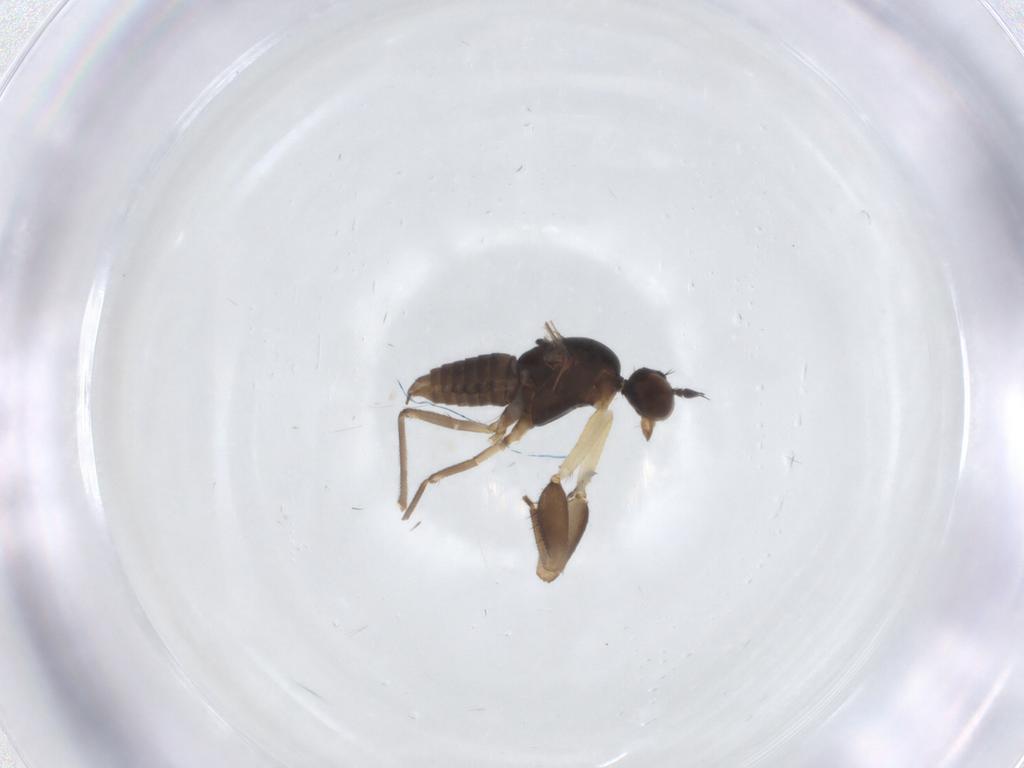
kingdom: Animalia
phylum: Arthropoda
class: Insecta
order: Diptera
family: Empididae
